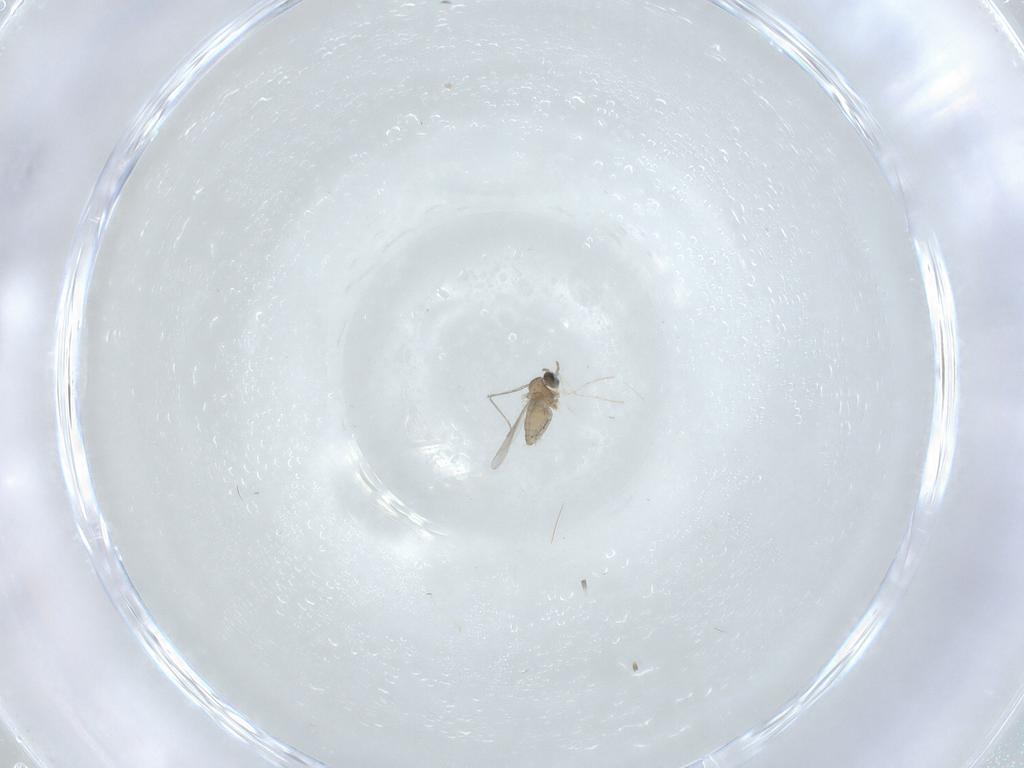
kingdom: Animalia
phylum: Arthropoda
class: Insecta
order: Diptera
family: Cecidomyiidae
